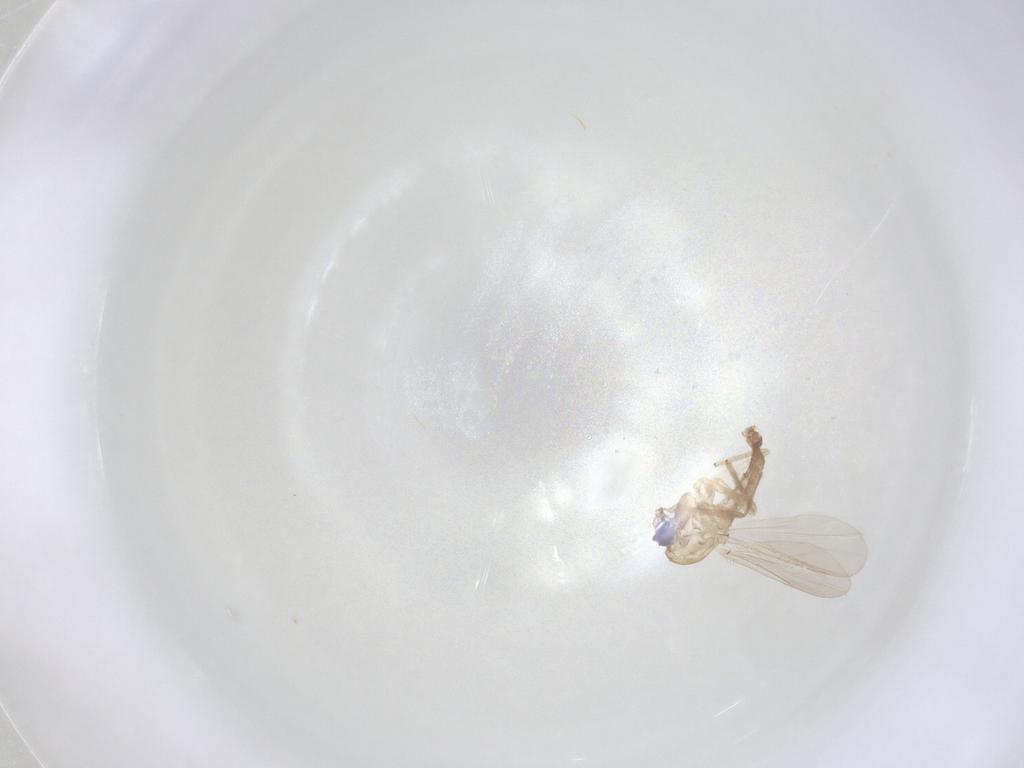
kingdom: Animalia
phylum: Arthropoda
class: Insecta
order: Diptera
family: Chironomidae
